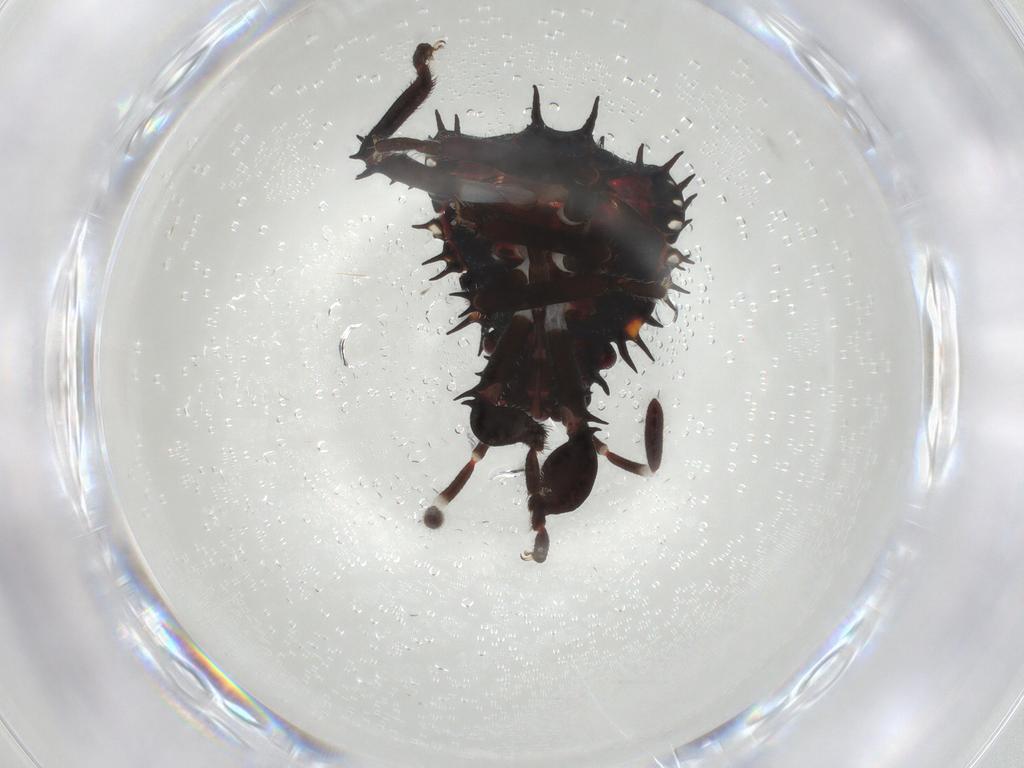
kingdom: Animalia
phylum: Arthropoda
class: Insecta
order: Hemiptera
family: Pentatomidae
